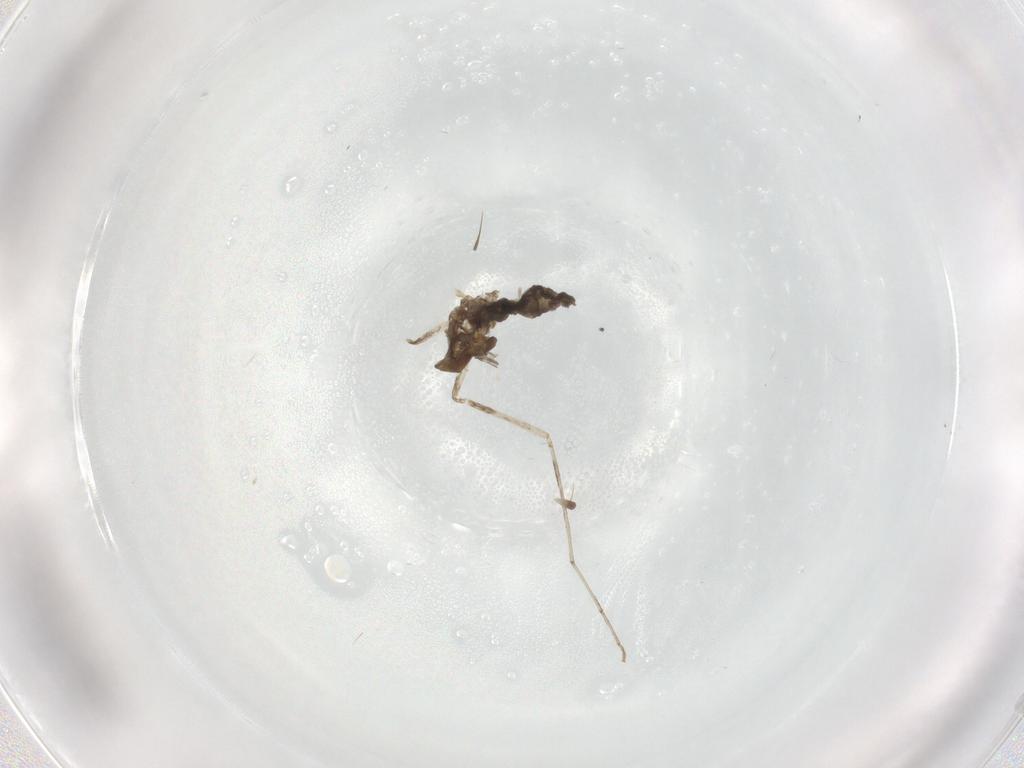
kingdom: Animalia
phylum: Arthropoda
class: Insecta
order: Diptera
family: Cecidomyiidae
